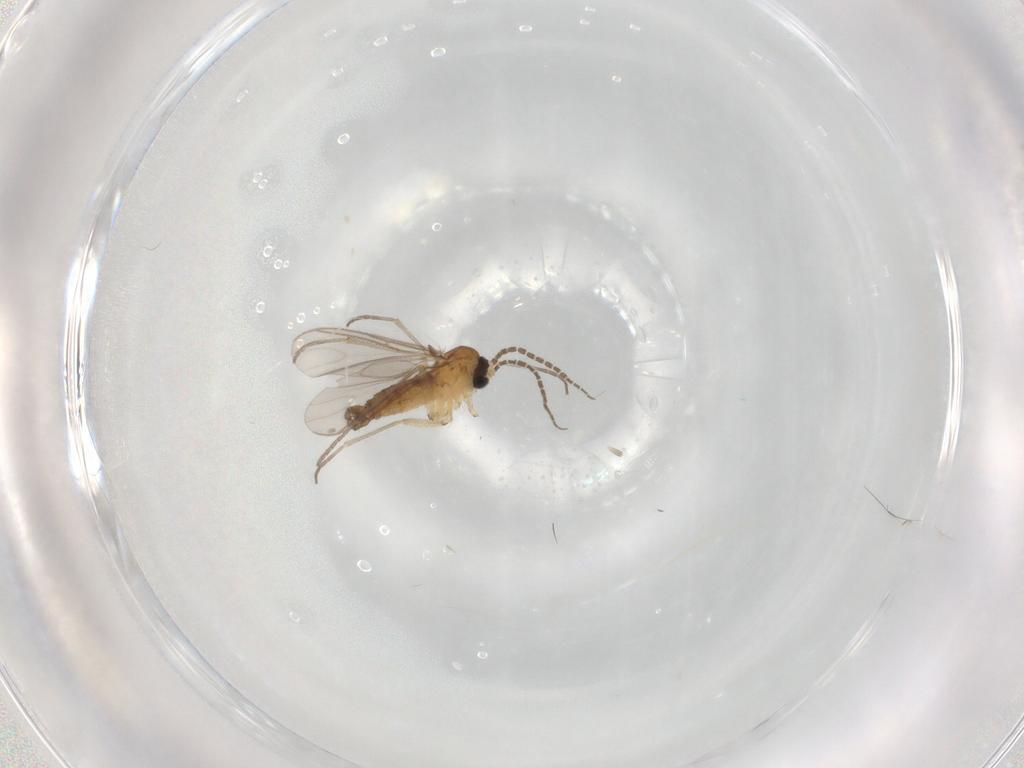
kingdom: Animalia
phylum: Arthropoda
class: Insecta
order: Diptera
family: Sciaridae
